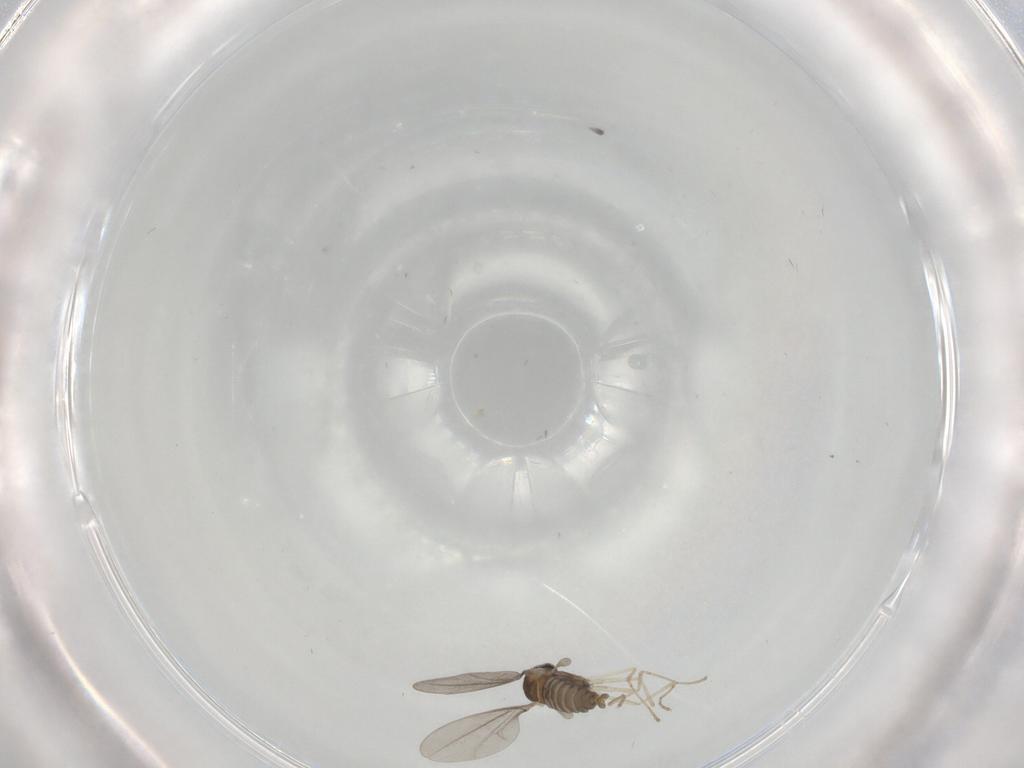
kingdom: Animalia
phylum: Arthropoda
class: Insecta
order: Diptera
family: Cecidomyiidae
